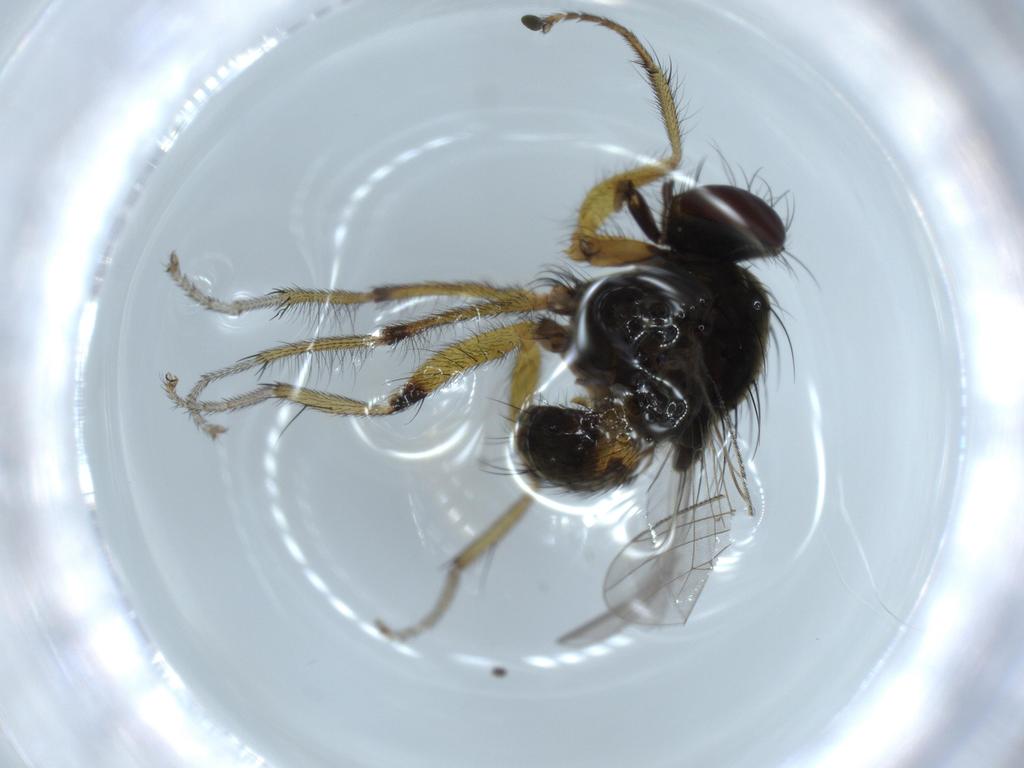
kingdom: Animalia
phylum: Arthropoda
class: Insecta
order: Diptera
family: Muscidae
